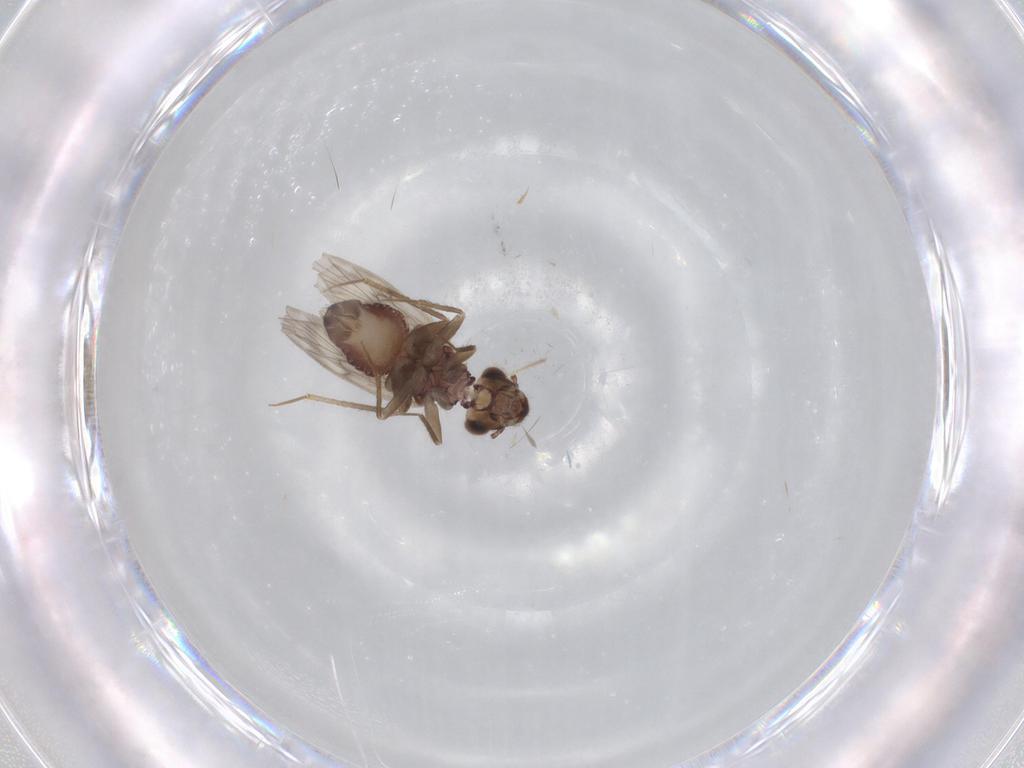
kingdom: Animalia
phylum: Arthropoda
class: Insecta
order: Psocodea
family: Lepidopsocidae
